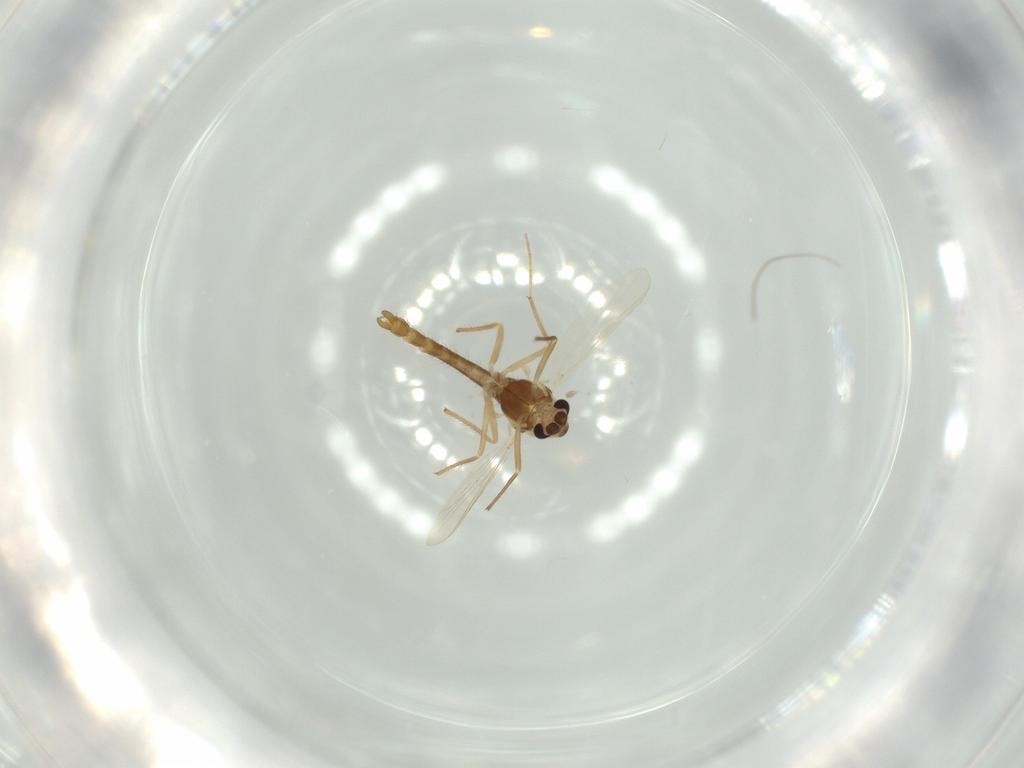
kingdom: Animalia
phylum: Arthropoda
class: Insecta
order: Diptera
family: Chironomidae
